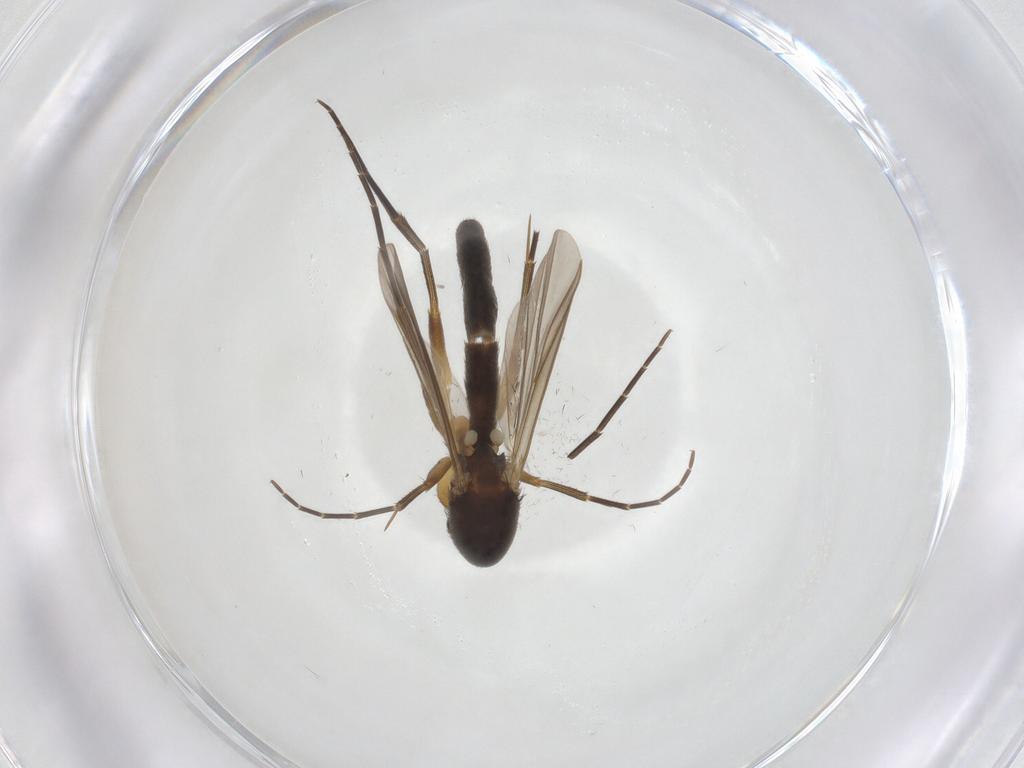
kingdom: Animalia
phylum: Arthropoda
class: Insecta
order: Diptera
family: Mycetophilidae
